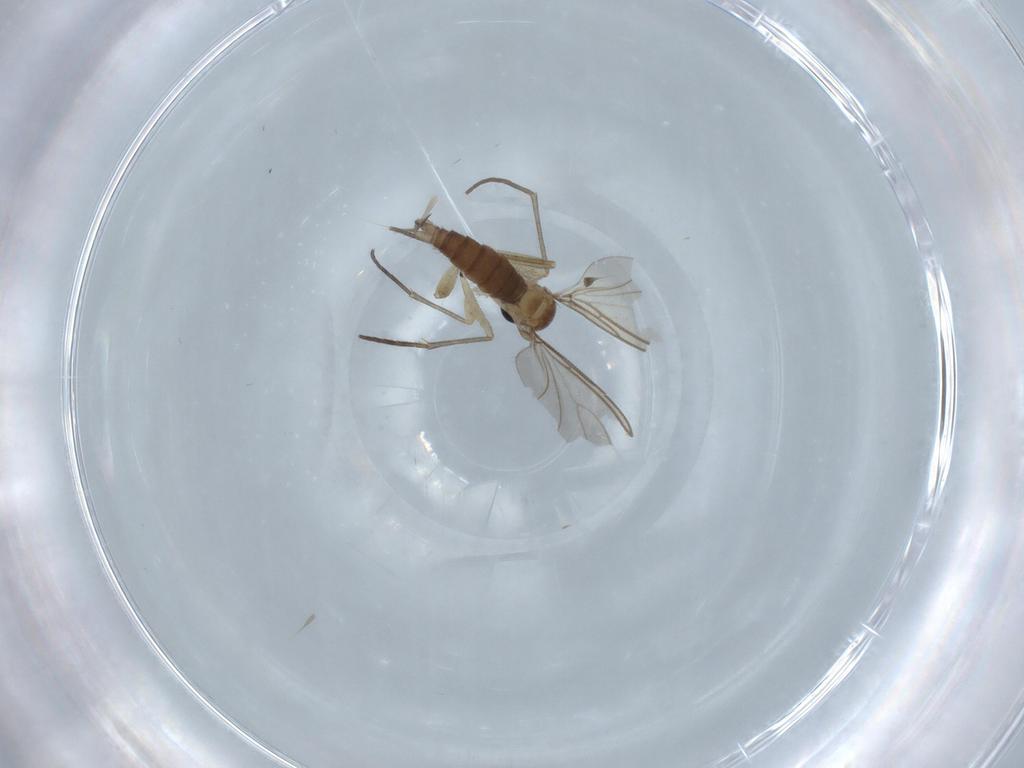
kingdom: Animalia
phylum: Arthropoda
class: Insecta
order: Diptera
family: Sciaridae
